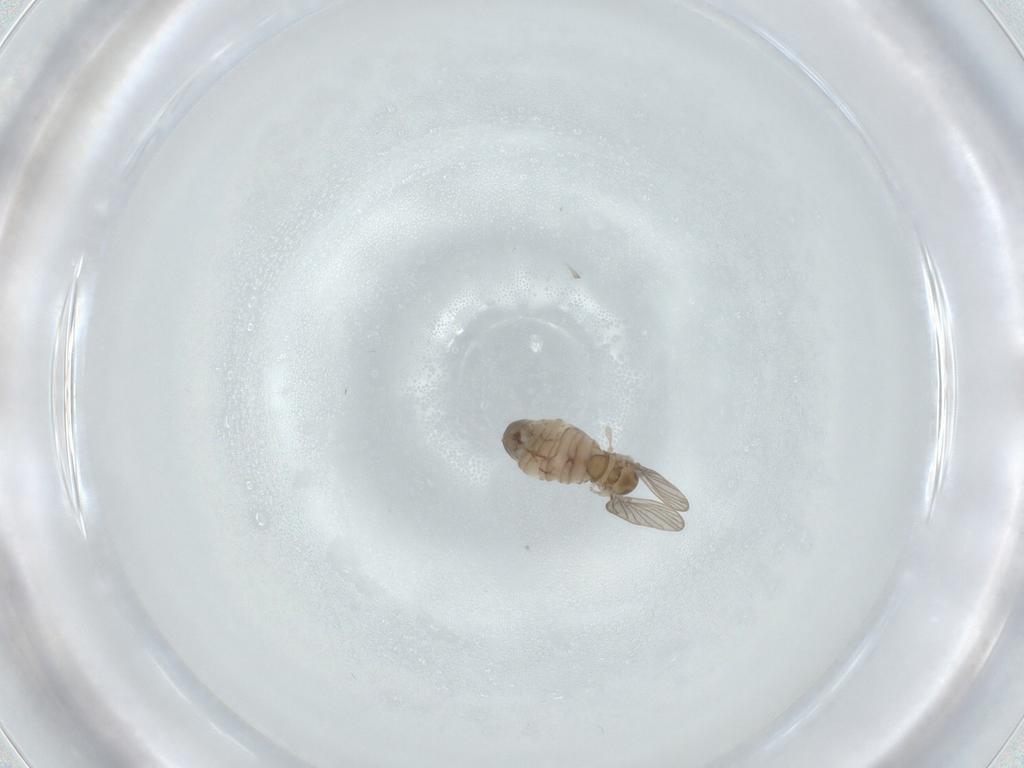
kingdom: Animalia
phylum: Arthropoda
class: Insecta
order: Diptera
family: Psychodidae
